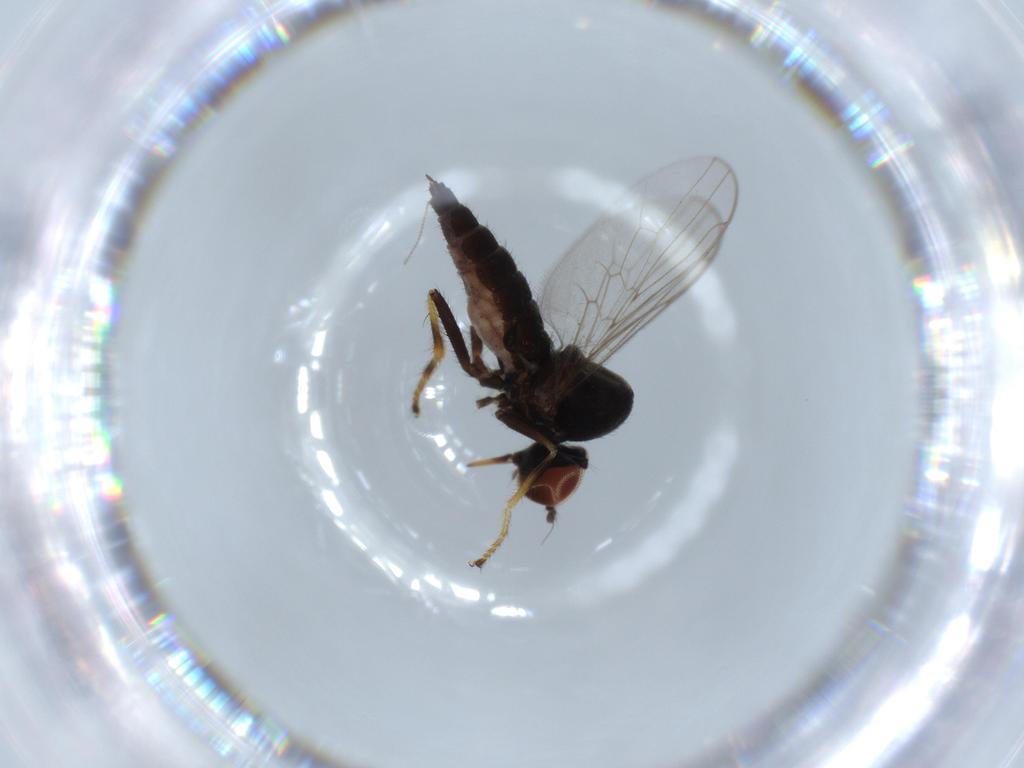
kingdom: Animalia
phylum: Arthropoda
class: Insecta
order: Diptera
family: Hybotidae
